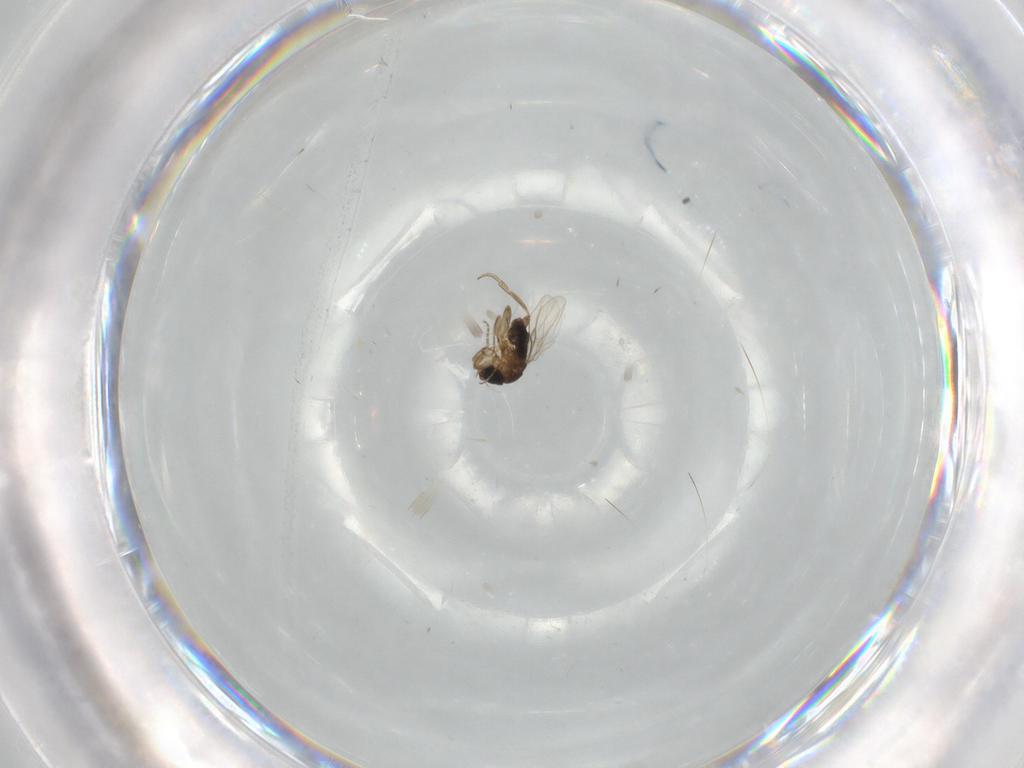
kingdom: Animalia
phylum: Arthropoda
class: Insecta
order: Diptera
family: Phoridae
